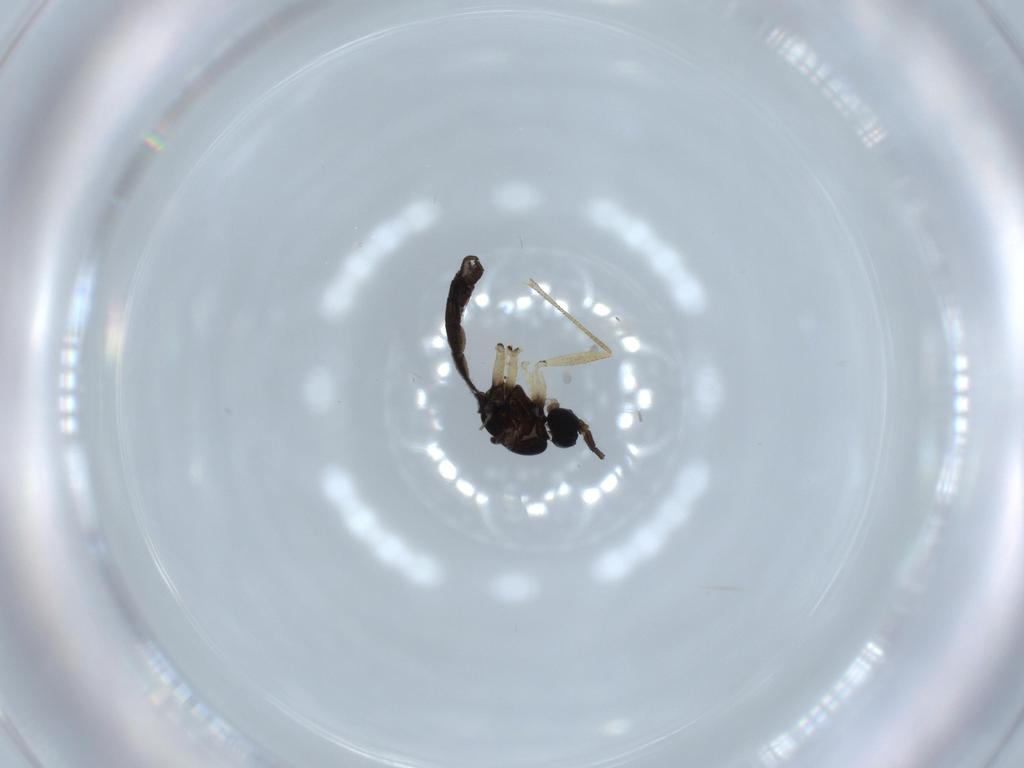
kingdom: Animalia
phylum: Arthropoda
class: Insecta
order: Diptera
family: Sciaridae
